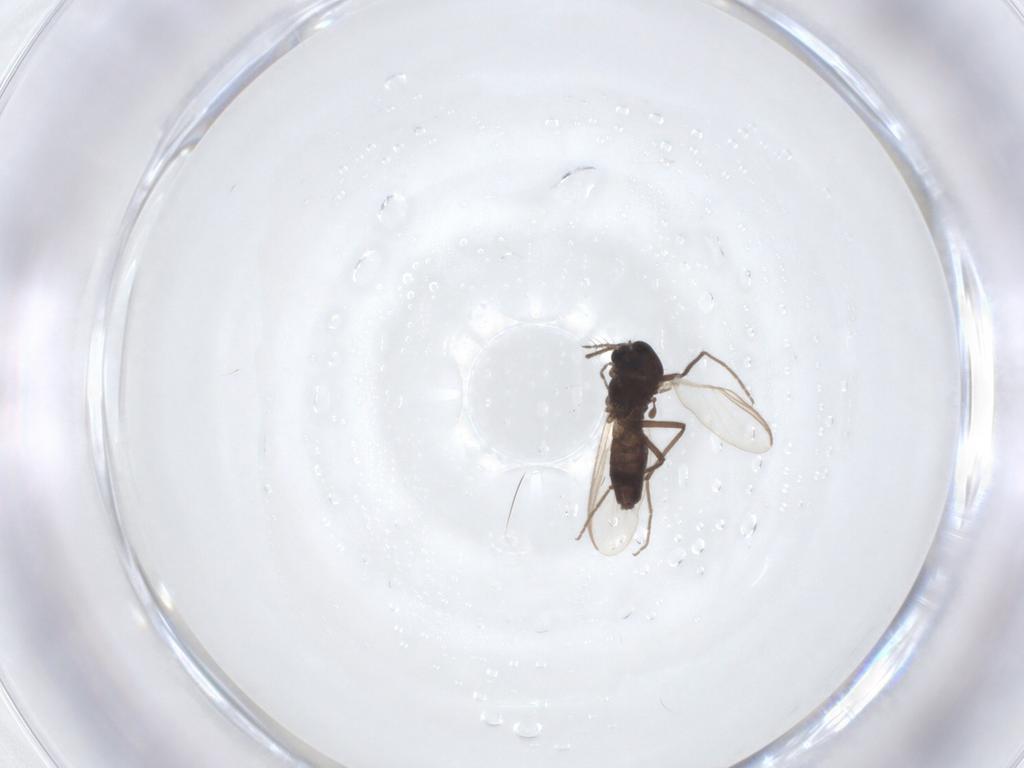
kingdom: Animalia
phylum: Arthropoda
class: Insecta
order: Diptera
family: Chironomidae
